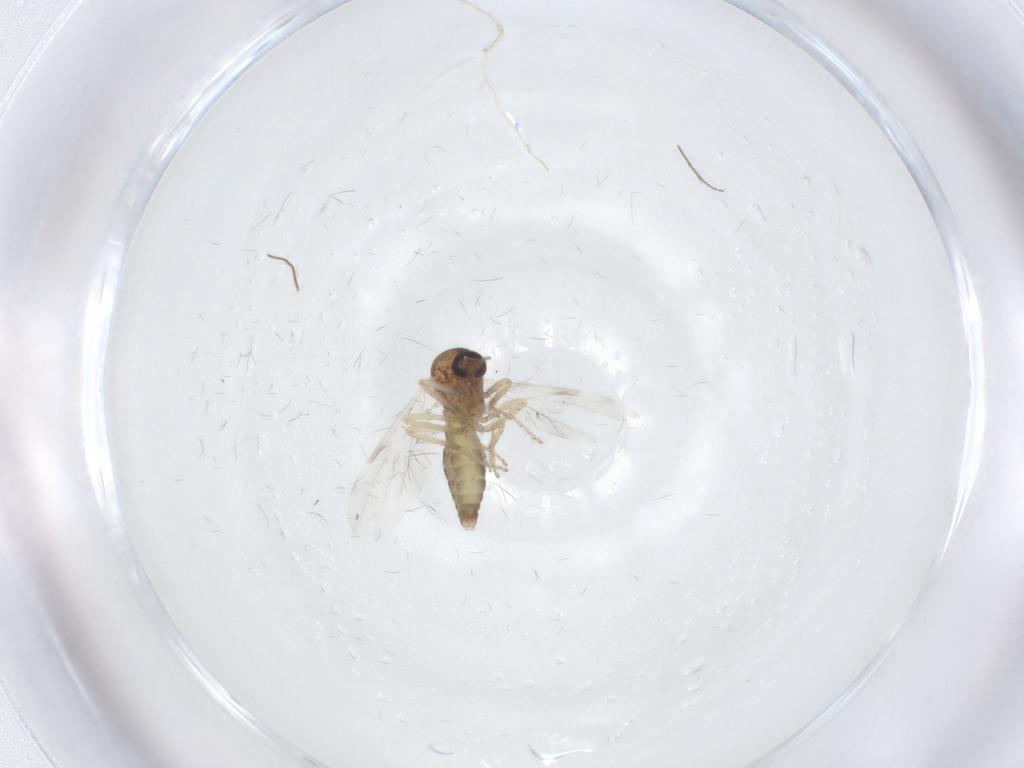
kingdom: Animalia
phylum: Arthropoda
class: Insecta
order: Diptera
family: Ceratopogonidae
